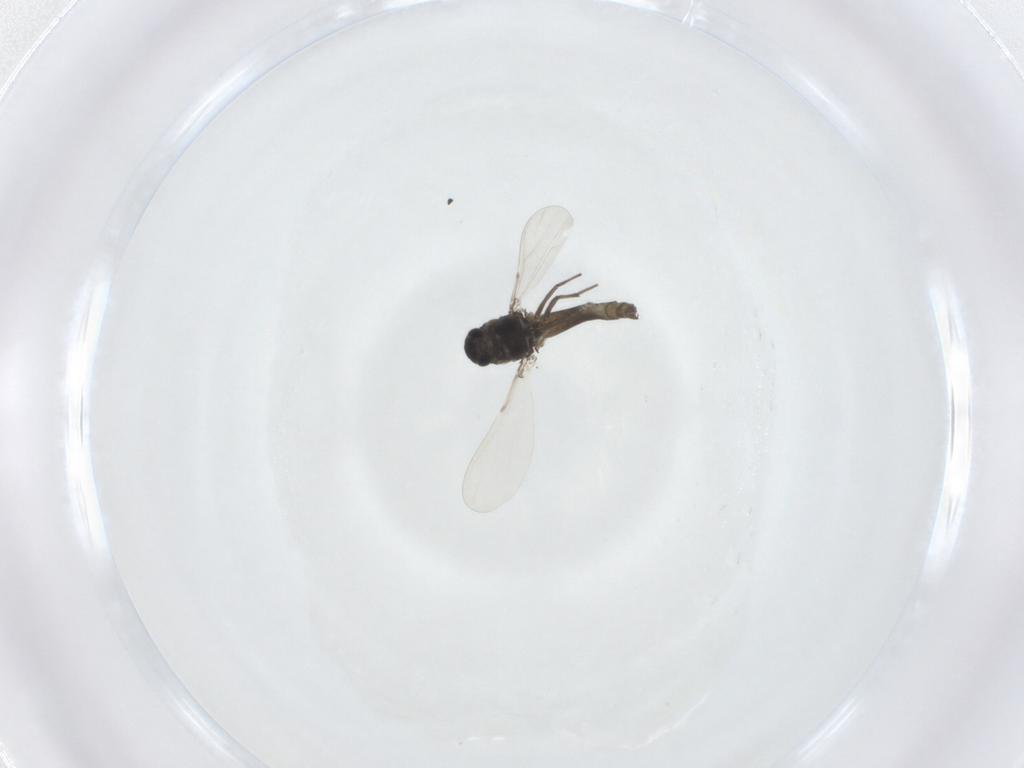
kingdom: Animalia
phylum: Arthropoda
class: Insecta
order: Diptera
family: Chironomidae
